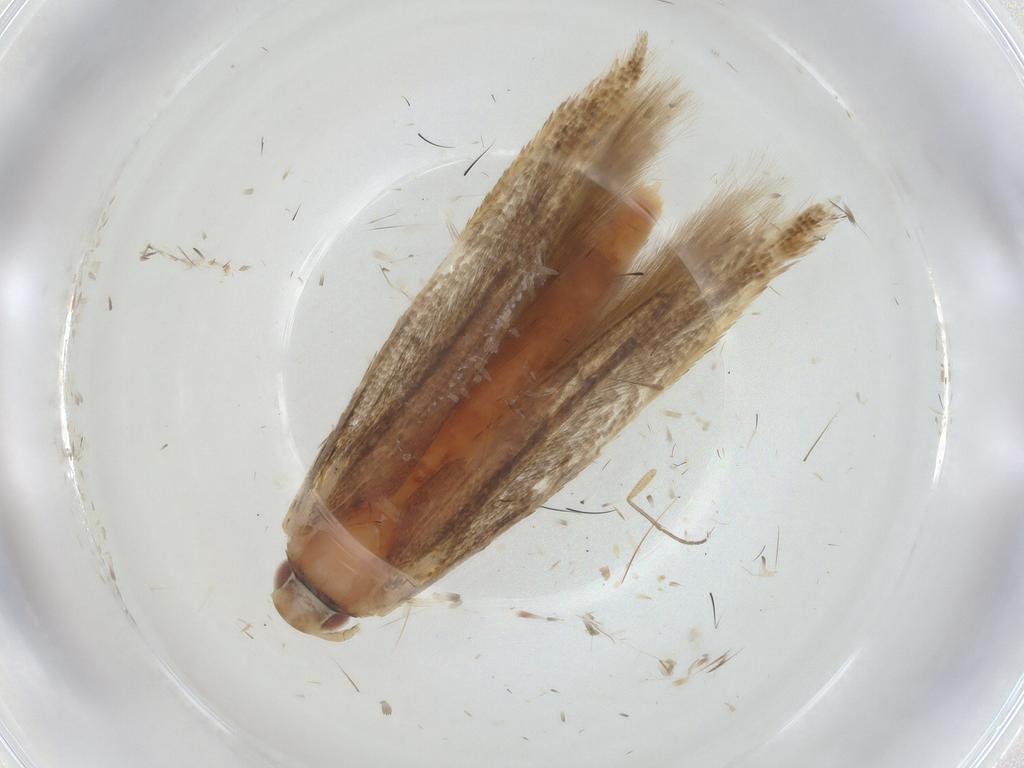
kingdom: Animalia
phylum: Arthropoda
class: Insecta
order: Lepidoptera
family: Cosmopterigidae
